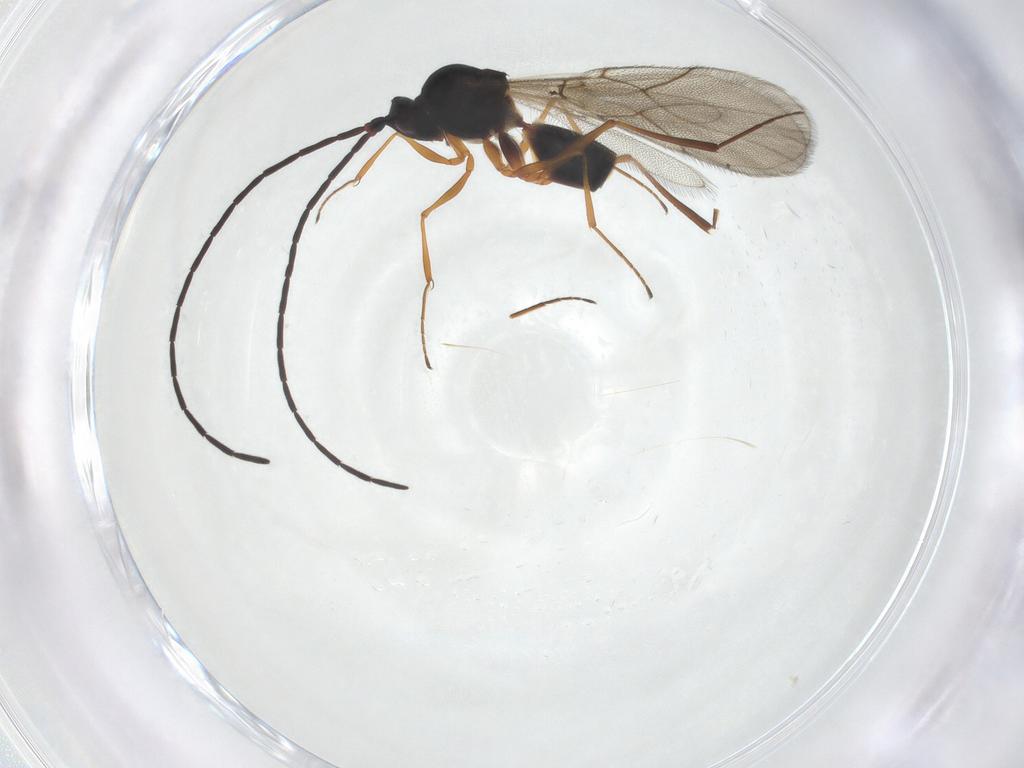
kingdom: Animalia
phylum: Arthropoda
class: Insecta
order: Hymenoptera
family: Figitidae
